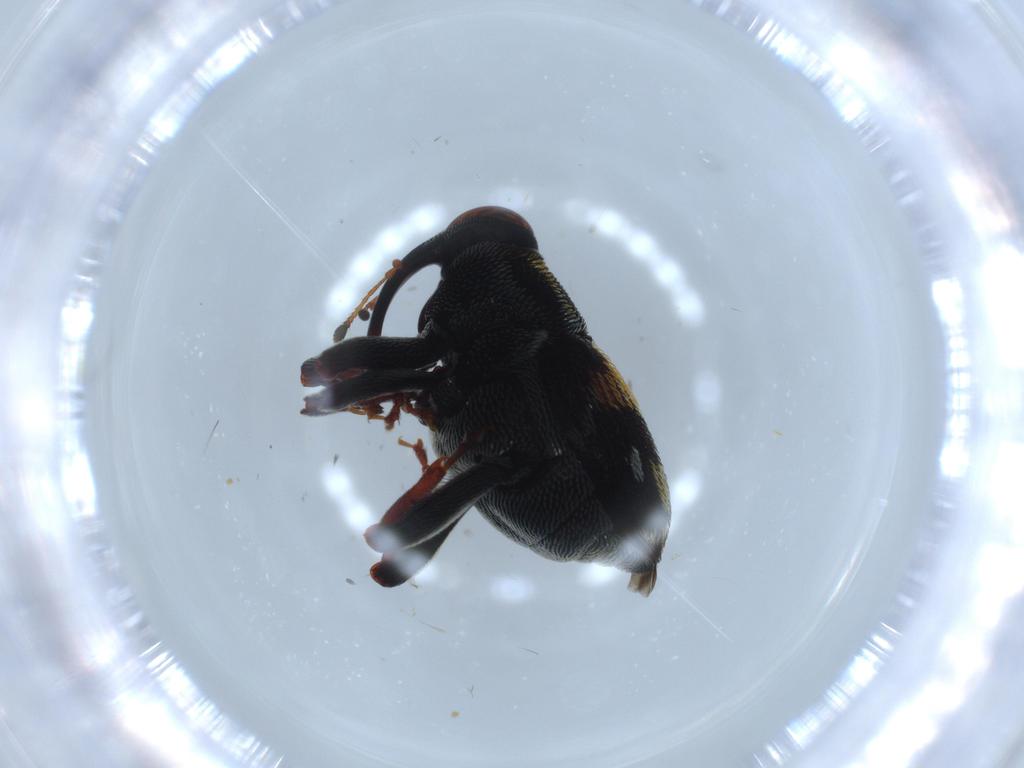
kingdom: Animalia
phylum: Arthropoda
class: Insecta
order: Coleoptera
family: Curculionidae
